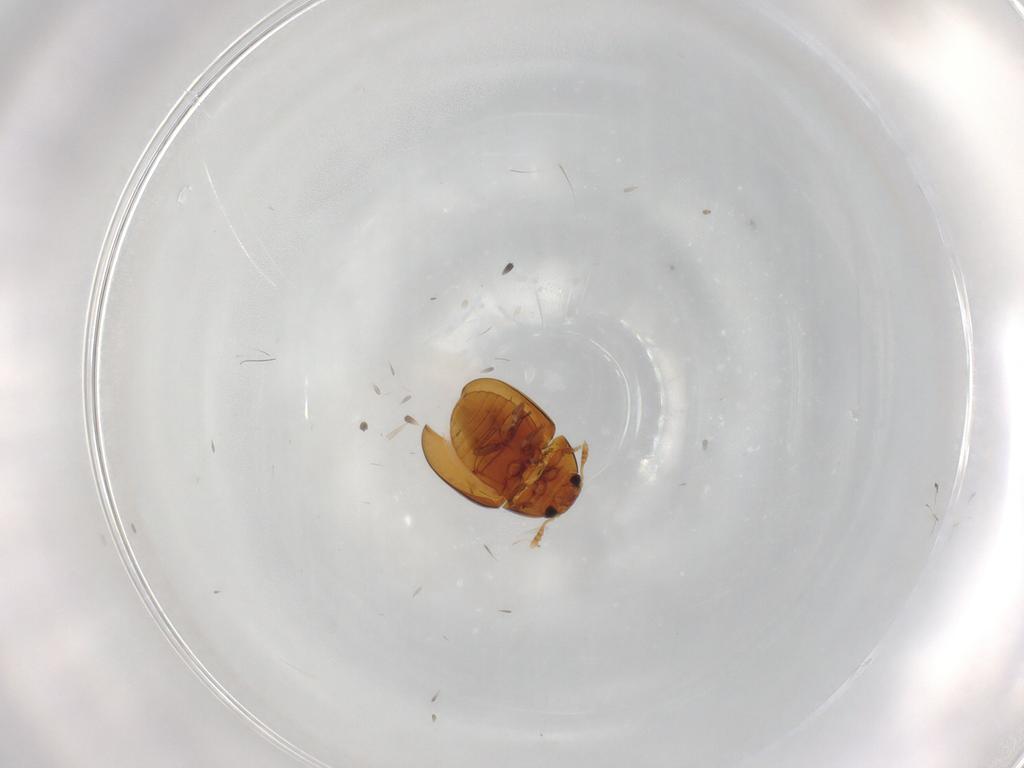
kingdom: Animalia
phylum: Arthropoda
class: Insecta
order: Coleoptera
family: Phalacridae
